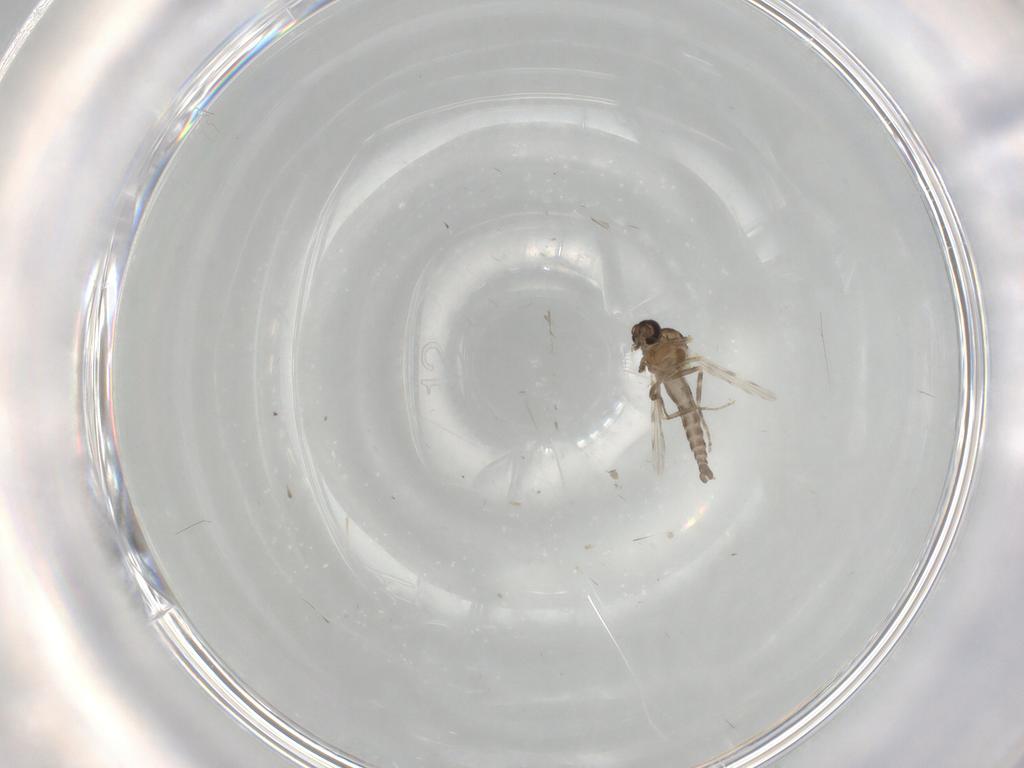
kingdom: Animalia
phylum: Arthropoda
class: Insecta
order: Diptera
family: Ceratopogonidae
